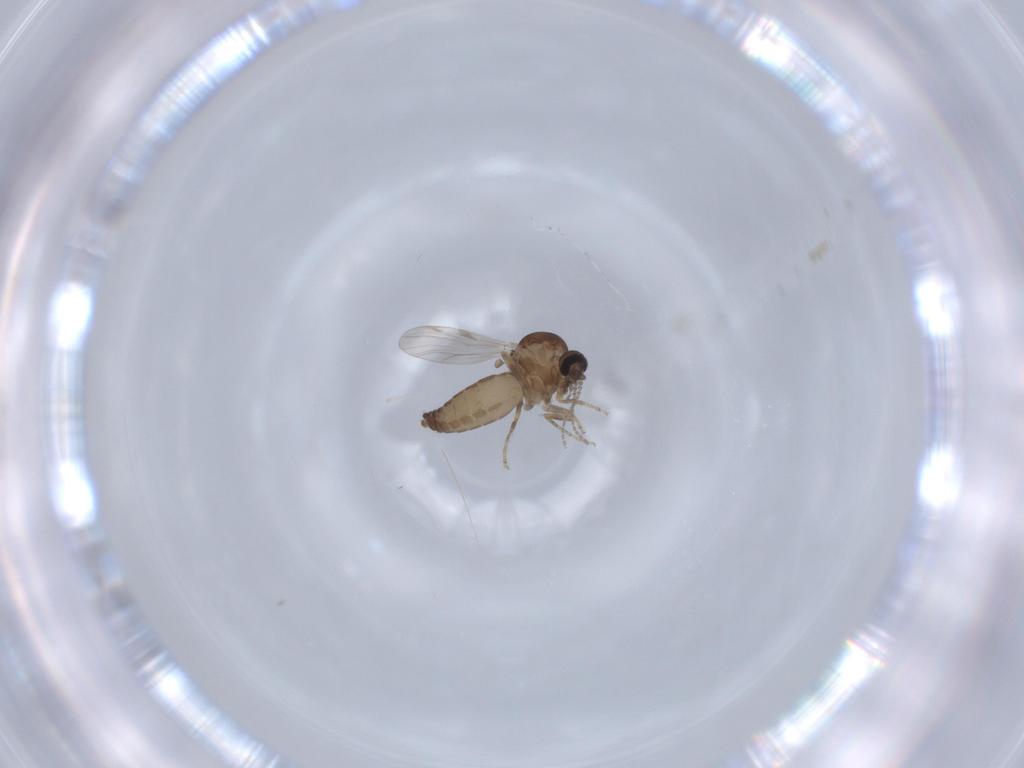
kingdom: Animalia
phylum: Arthropoda
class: Insecta
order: Diptera
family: Ceratopogonidae
